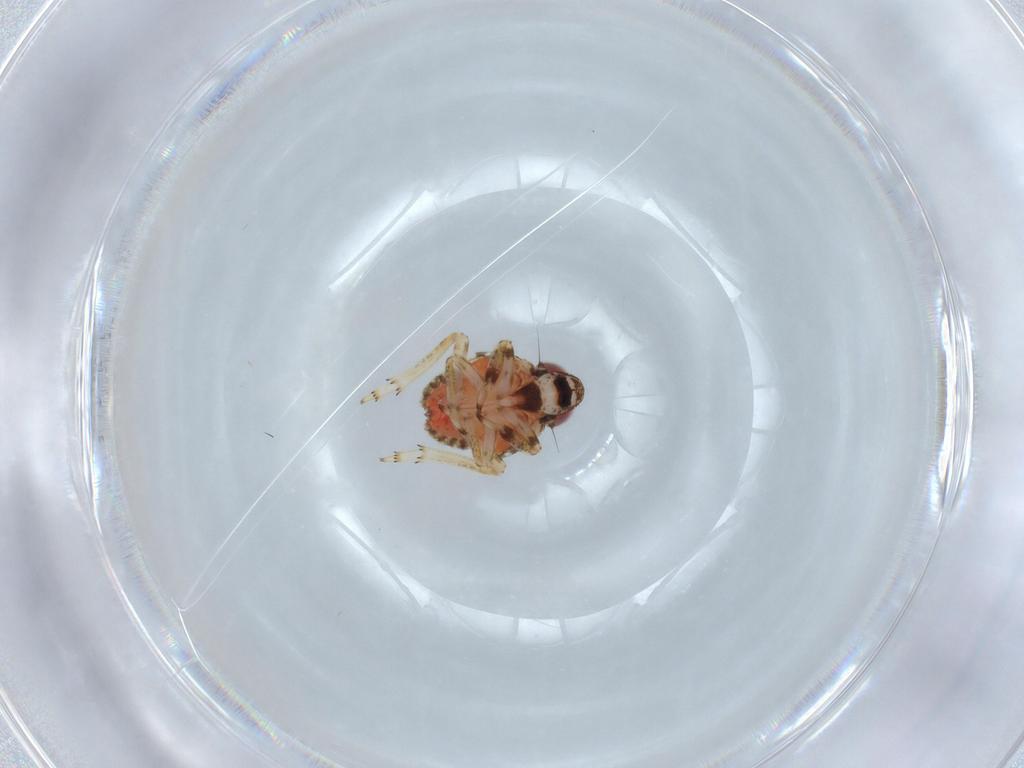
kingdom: Animalia
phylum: Arthropoda
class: Insecta
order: Hemiptera
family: Issidae
